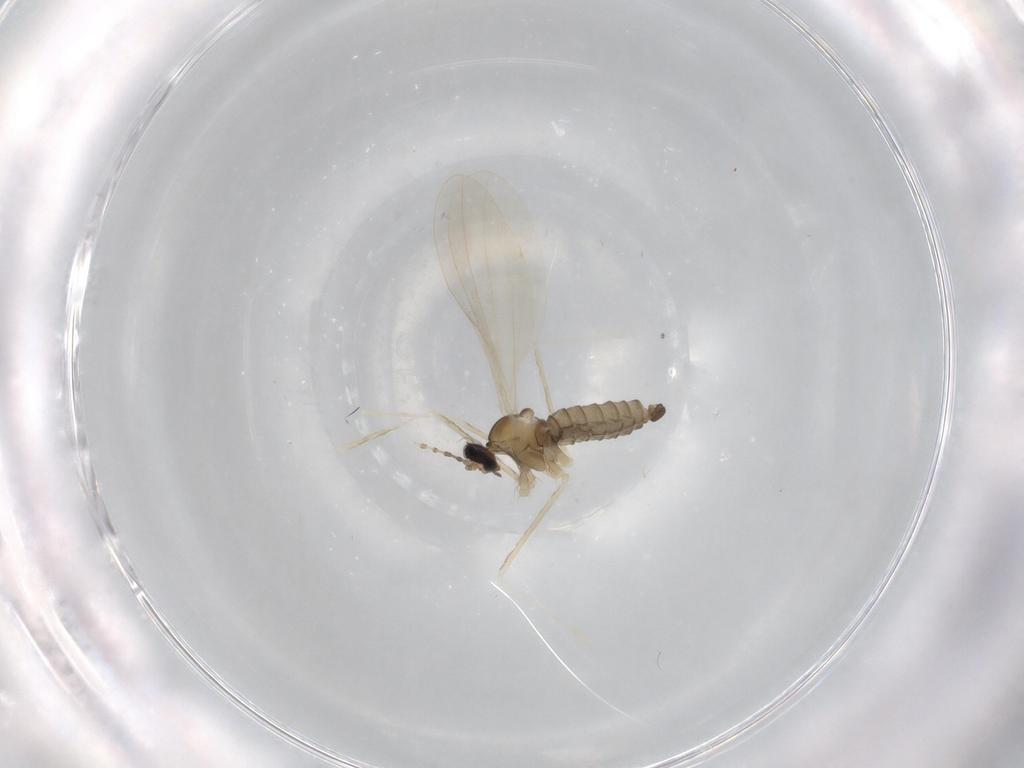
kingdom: Animalia
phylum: Arthropoda
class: Insecta
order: Diptera
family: Cecidomyiidae
